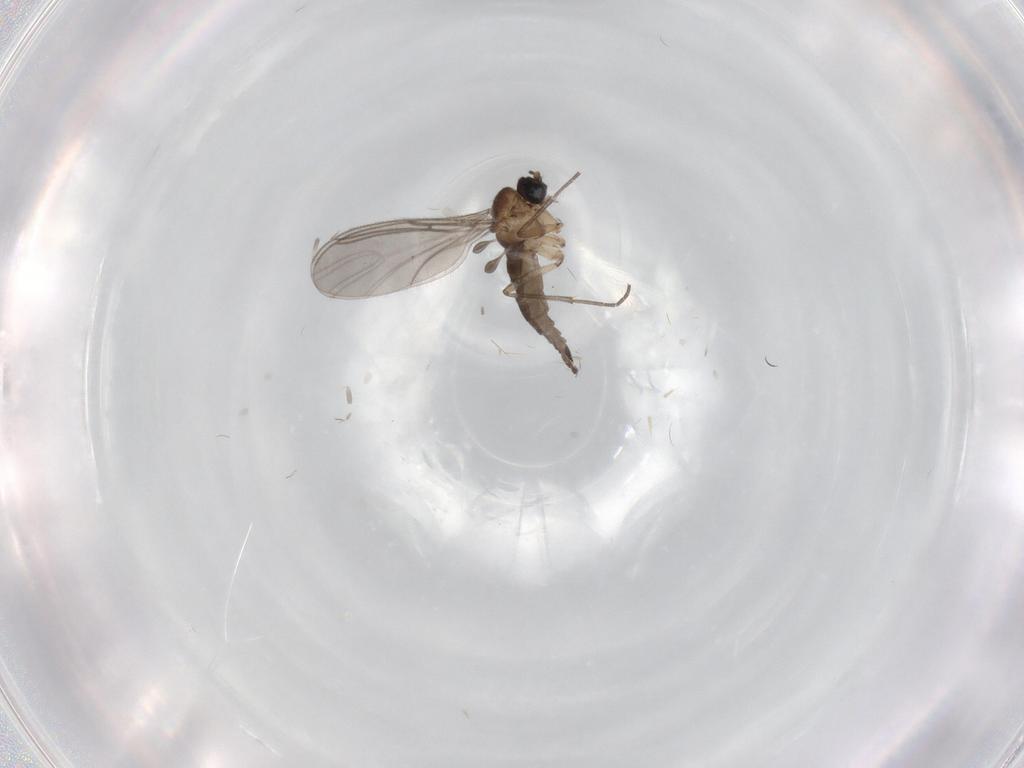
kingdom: Animalia
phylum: Arthropoda
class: Insecta
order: Diptera
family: Sciaridae
